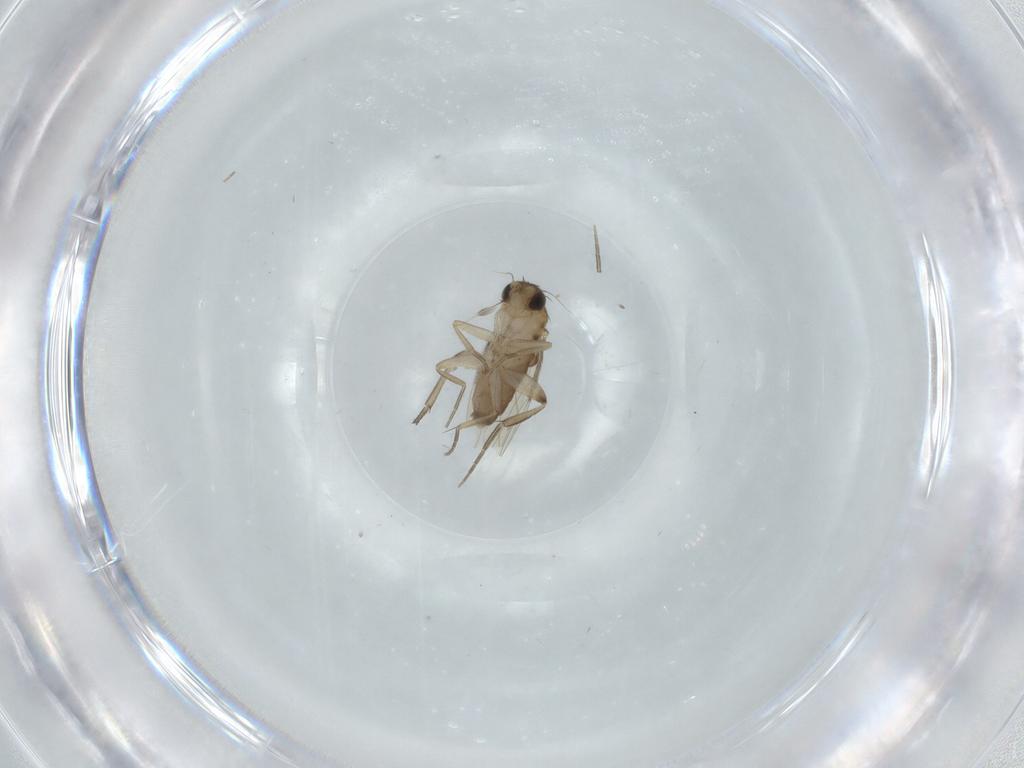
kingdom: Animalia
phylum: Arthropoda
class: Insecta
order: Diptera
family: Phoridae
